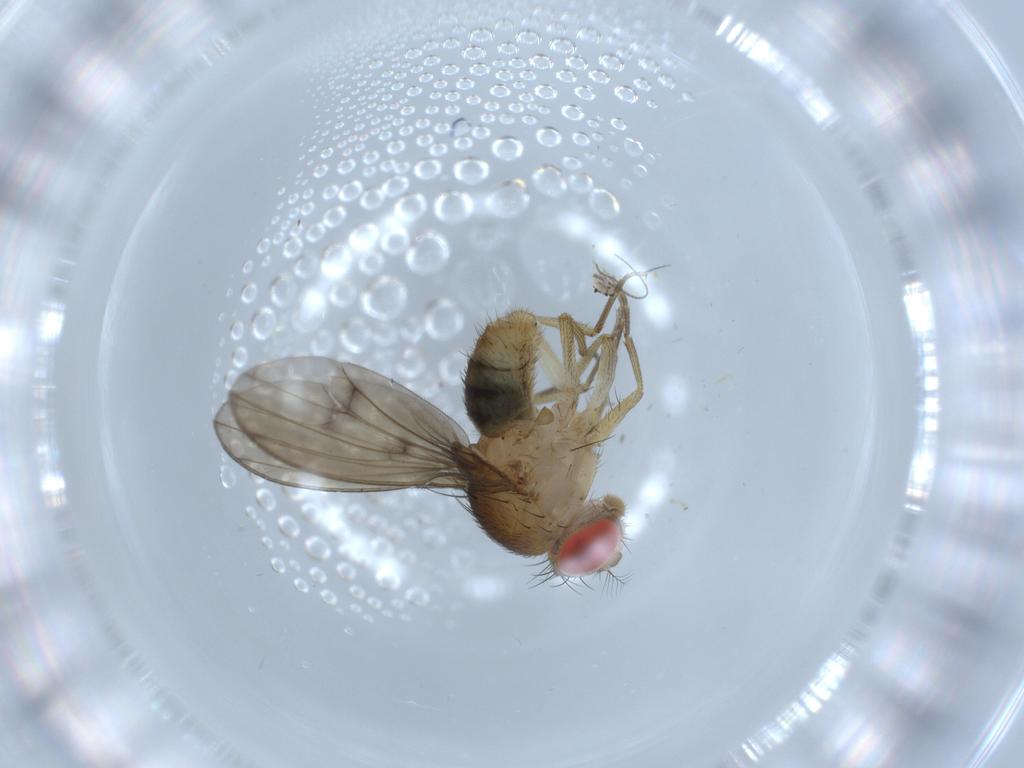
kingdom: Animalia
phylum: Arthropoda
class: Insecta
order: Diptera
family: Drosophilidae
